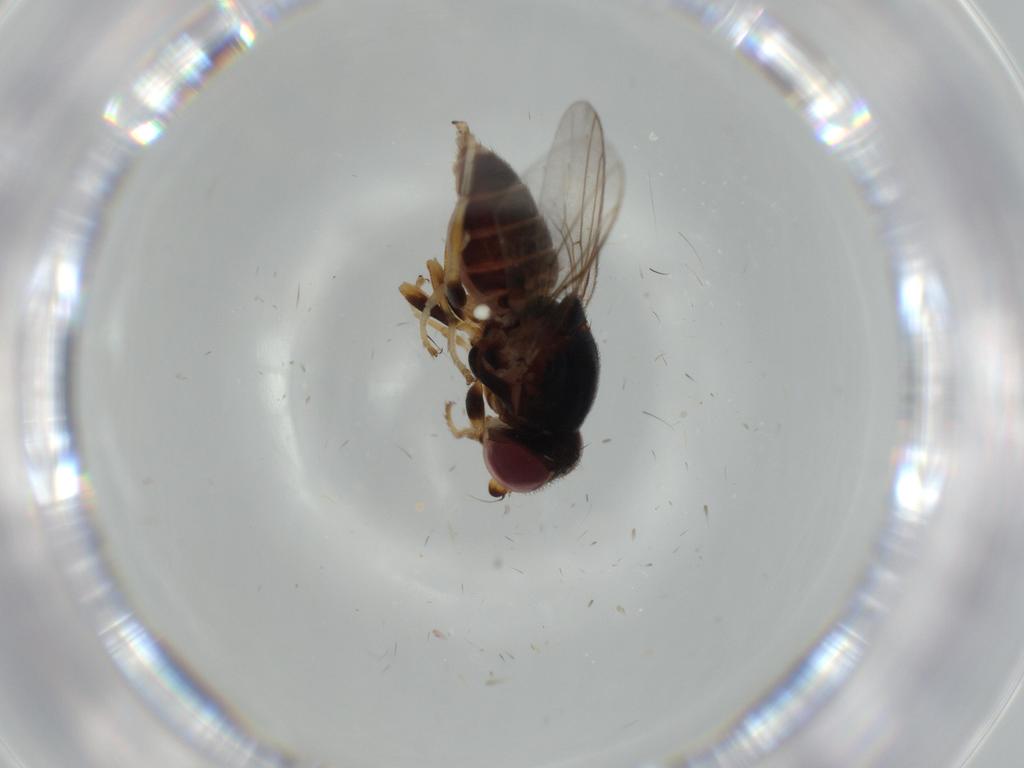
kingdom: Animalia
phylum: Arthropoda
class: Insecta
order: Diptera
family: Chloropidae
